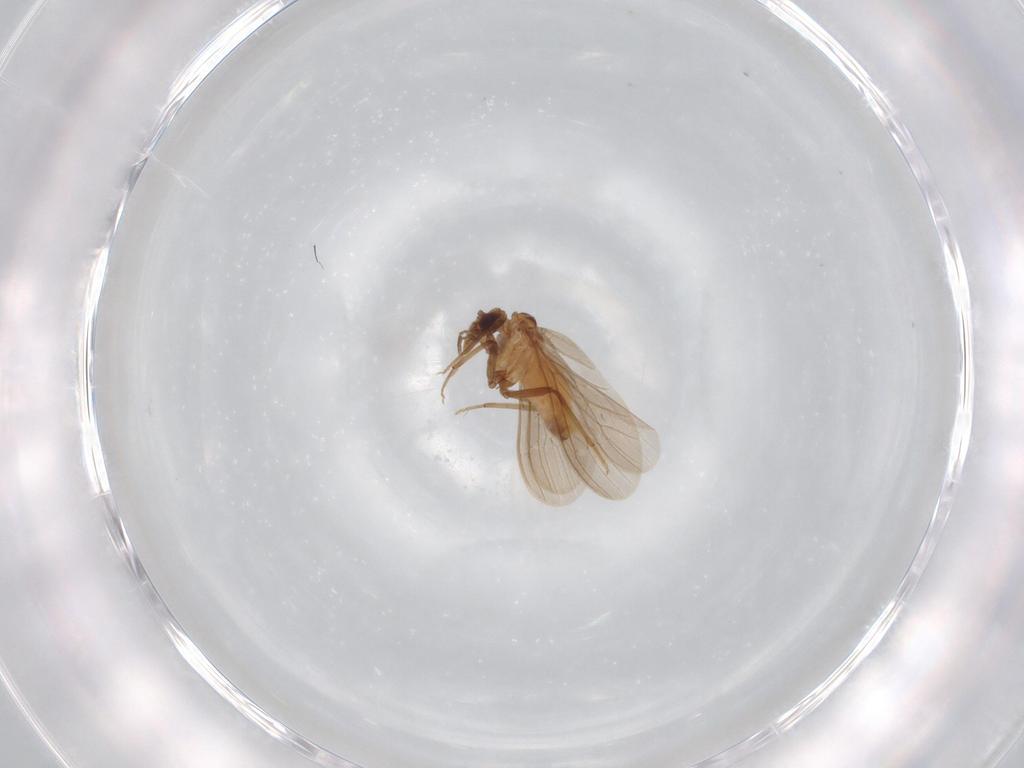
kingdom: Animalia
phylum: Arthropoda
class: Insecta
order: Neuroptera
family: Coniopterygidae
